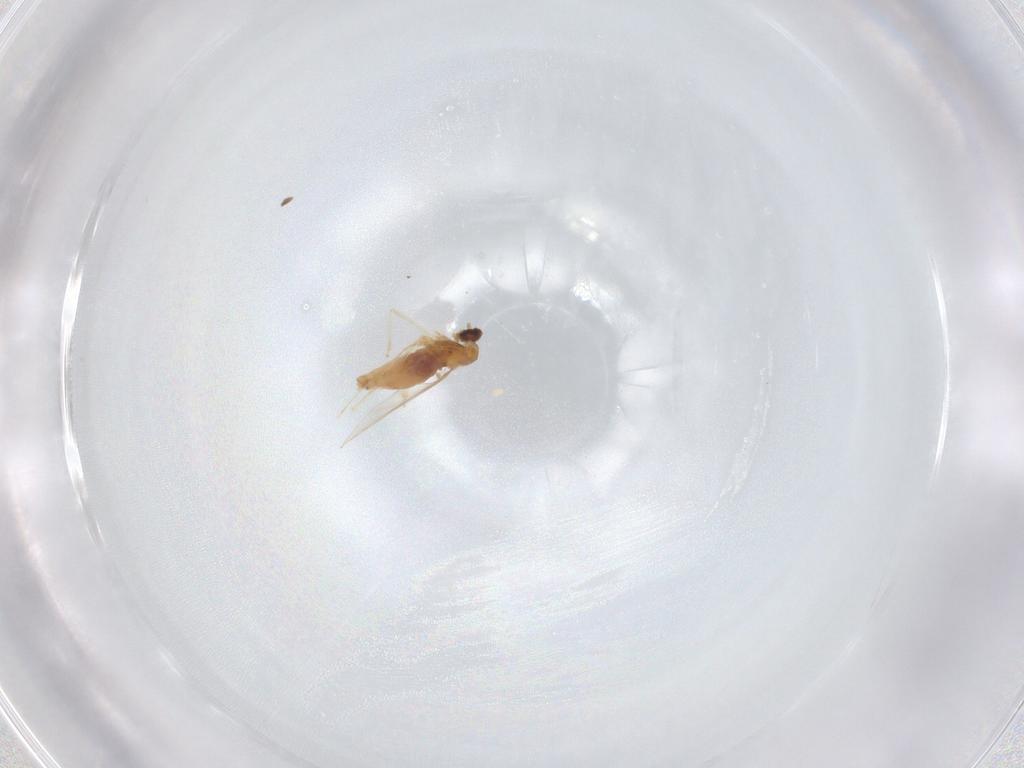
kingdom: Animalia
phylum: Arthropoda
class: Insecta
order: Diptera
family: Cecidomyiidae
